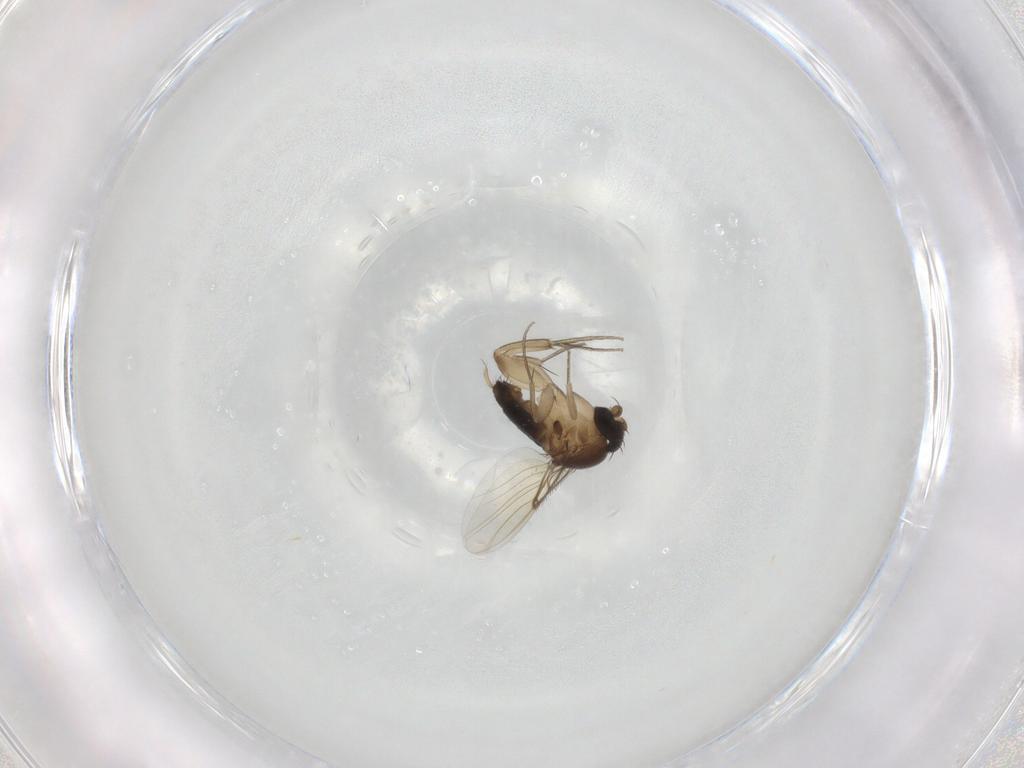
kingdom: Animalia
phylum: Arthropoda
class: Insecta
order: Diptera
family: Phoridae
